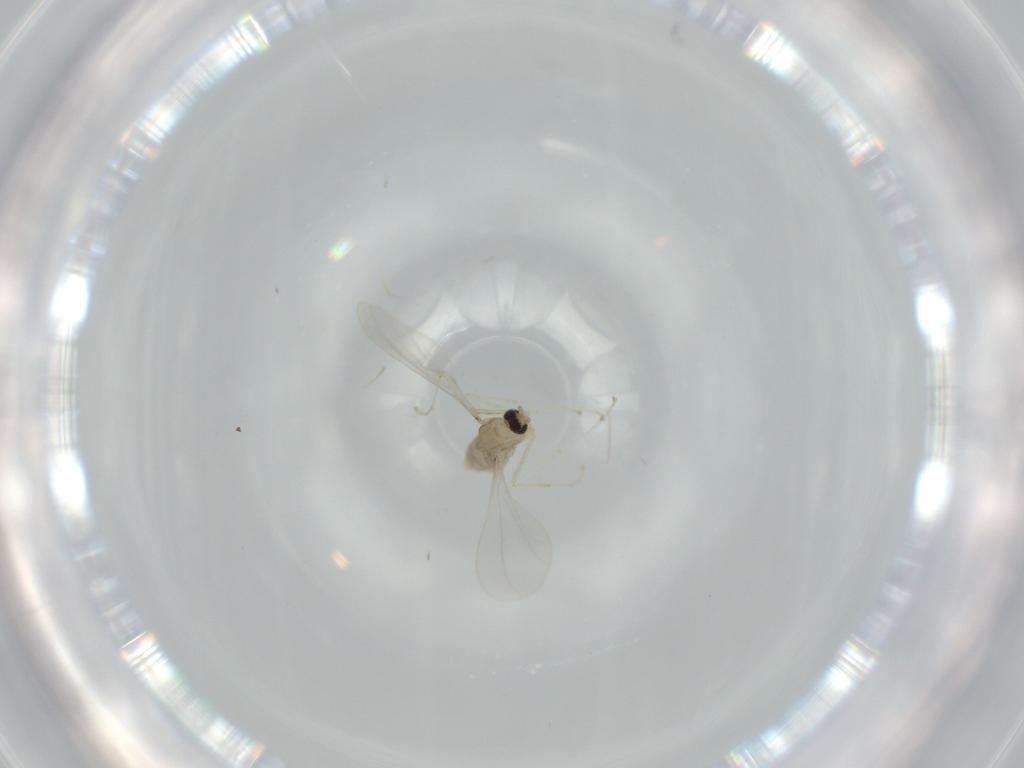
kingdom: Animalia
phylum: Arthropoda
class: Insecta
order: Diptera
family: Cecidomyiidae
